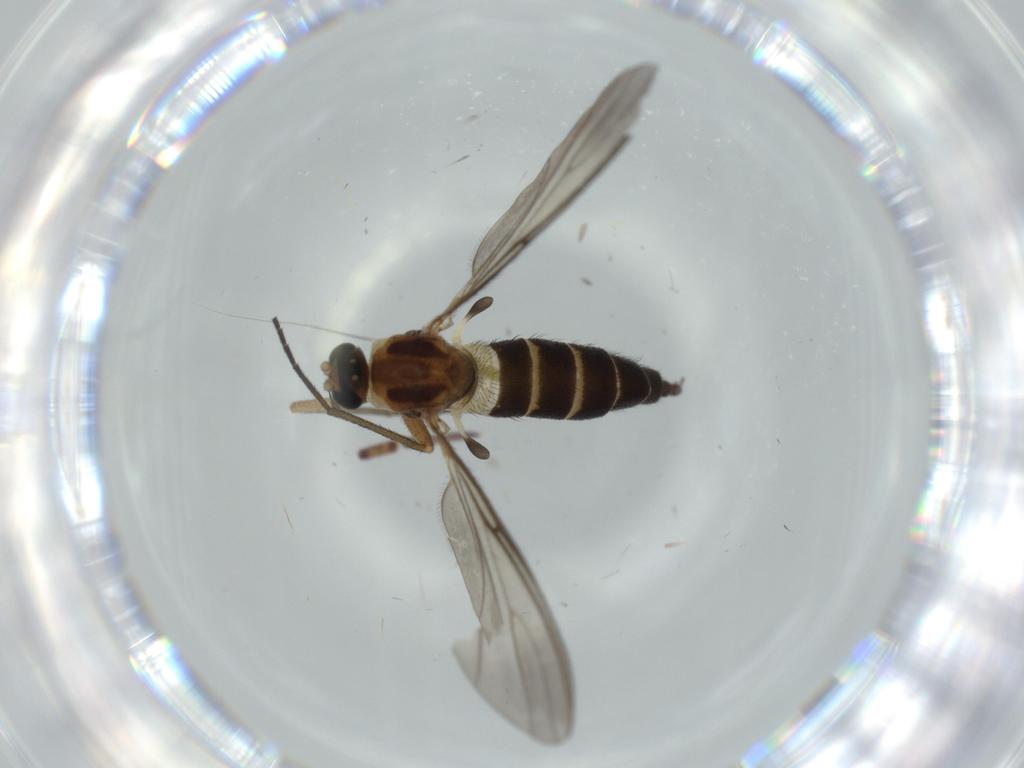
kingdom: Animalia
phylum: Arthropoda
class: Insecta
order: Diptera
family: Sciaridae
